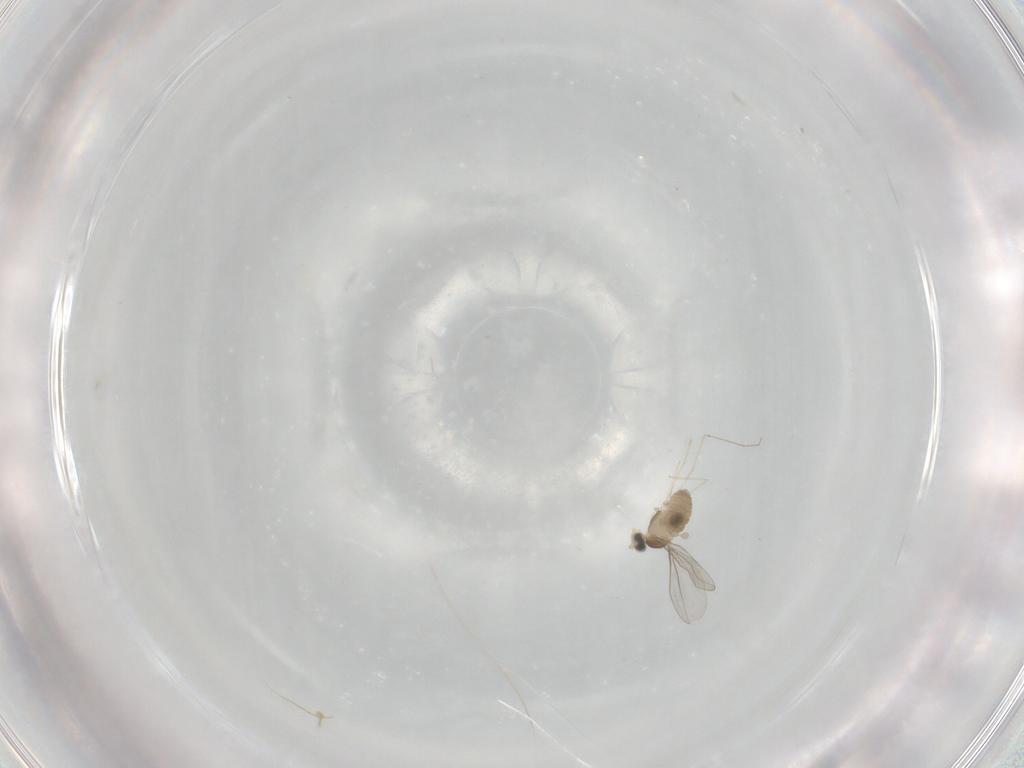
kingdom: Animalia
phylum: Arthropoda
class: Insecta
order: Diptera
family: Cecidomyiidae
